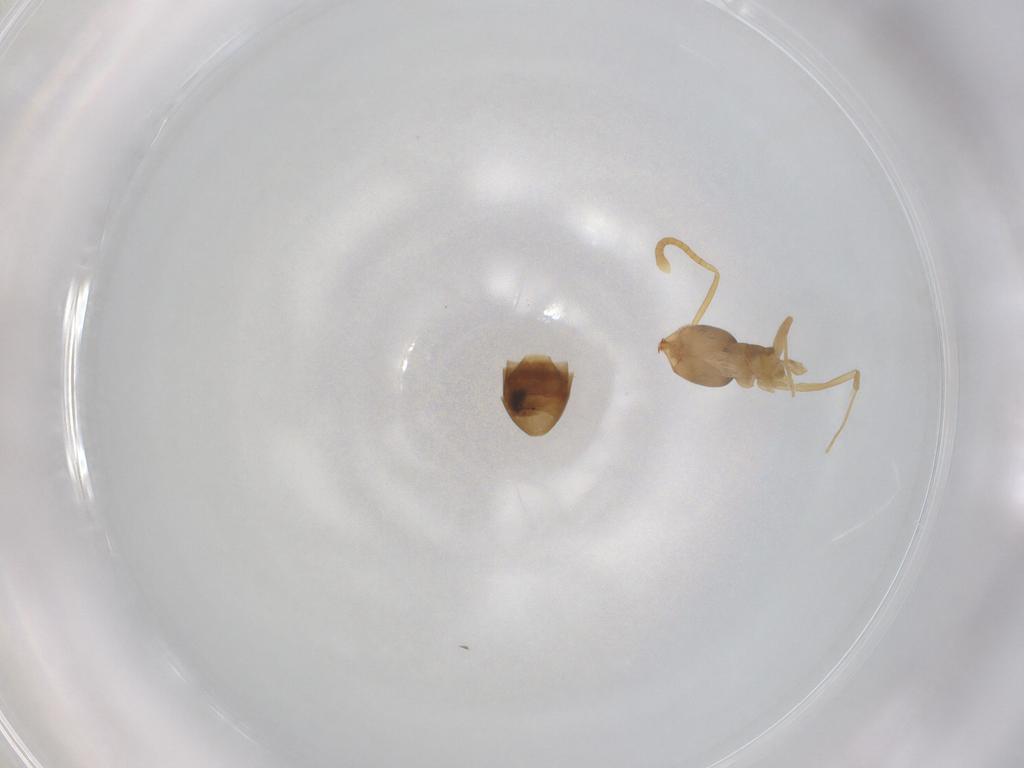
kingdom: Animalia
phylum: Arthropoda
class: Insecta
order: Hymenoptera
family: Formicidae
